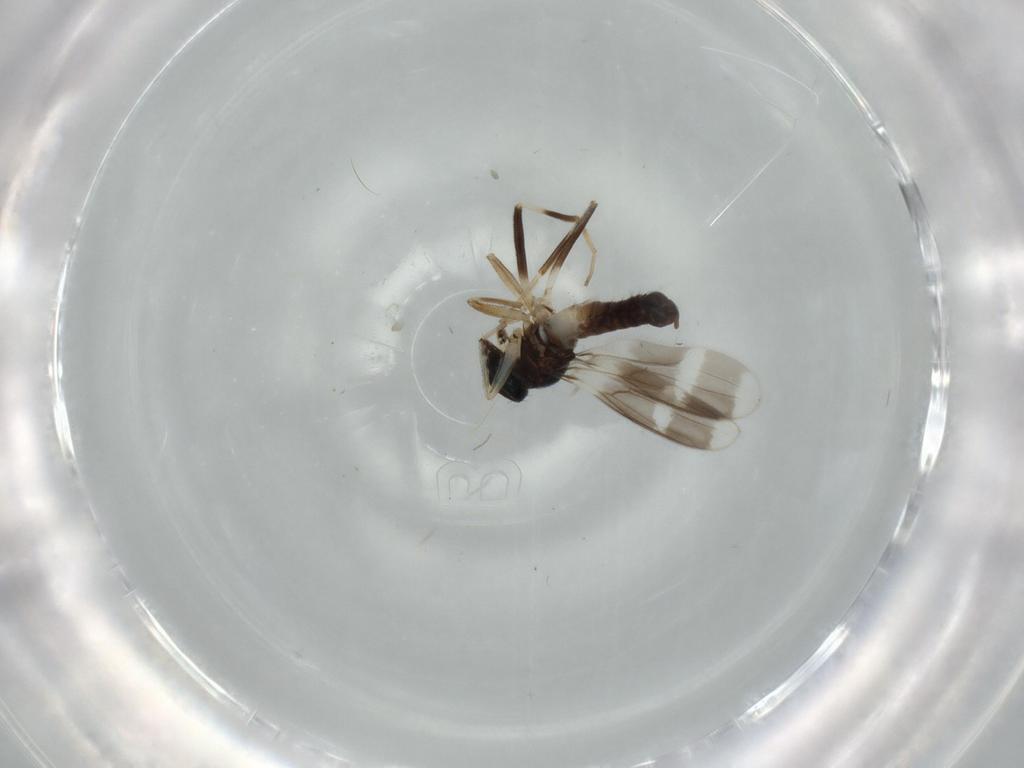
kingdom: Animalia
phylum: Arthropoda
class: Insecta
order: Diptera
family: Hybotidae
